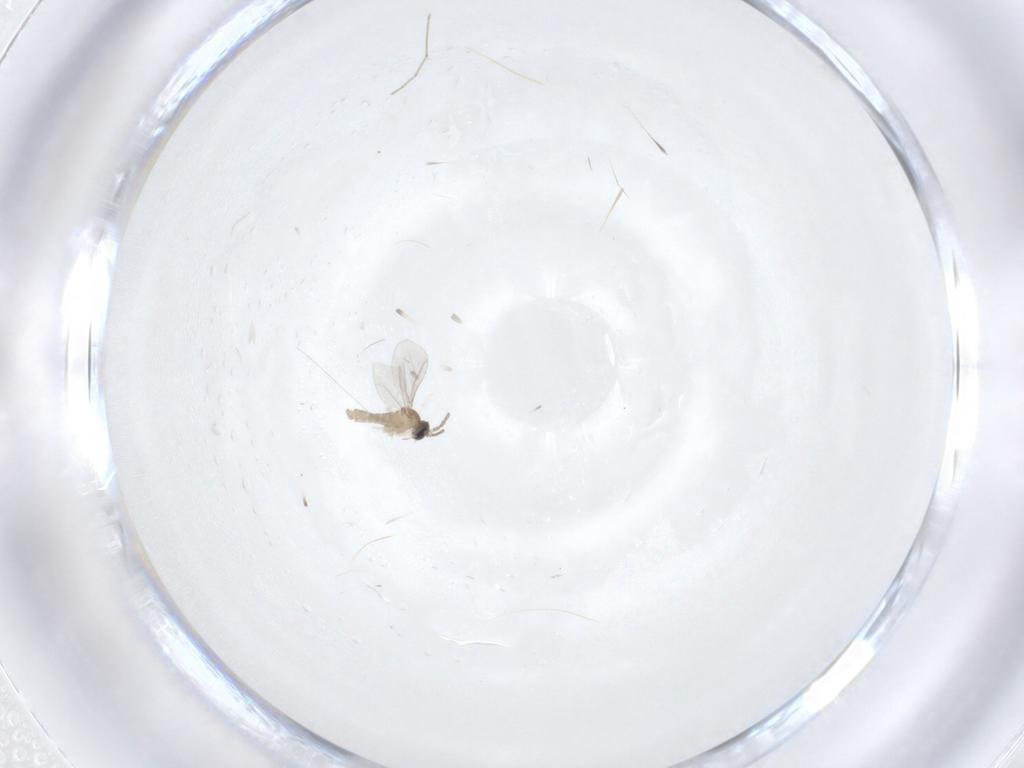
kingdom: Animalia
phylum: Arthropoda
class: Insecta
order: Diptera
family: Cecidomyiidae
